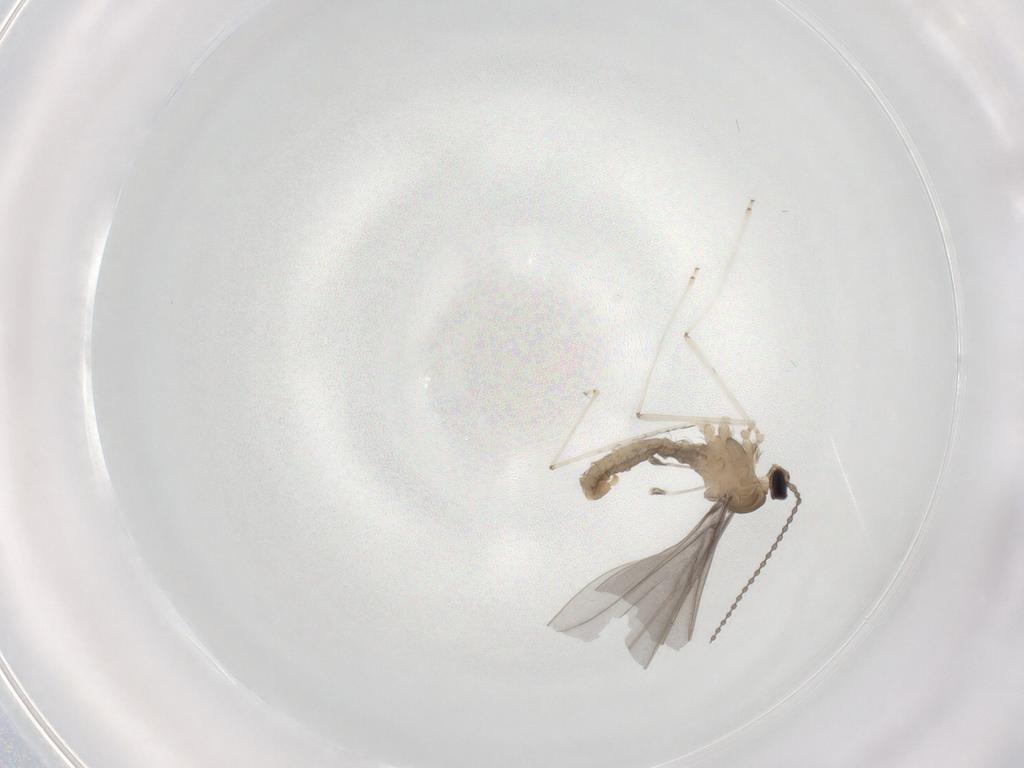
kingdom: Animalia
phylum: Arthropoda
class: Insecta
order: Diptera
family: Cecidomyiidae
